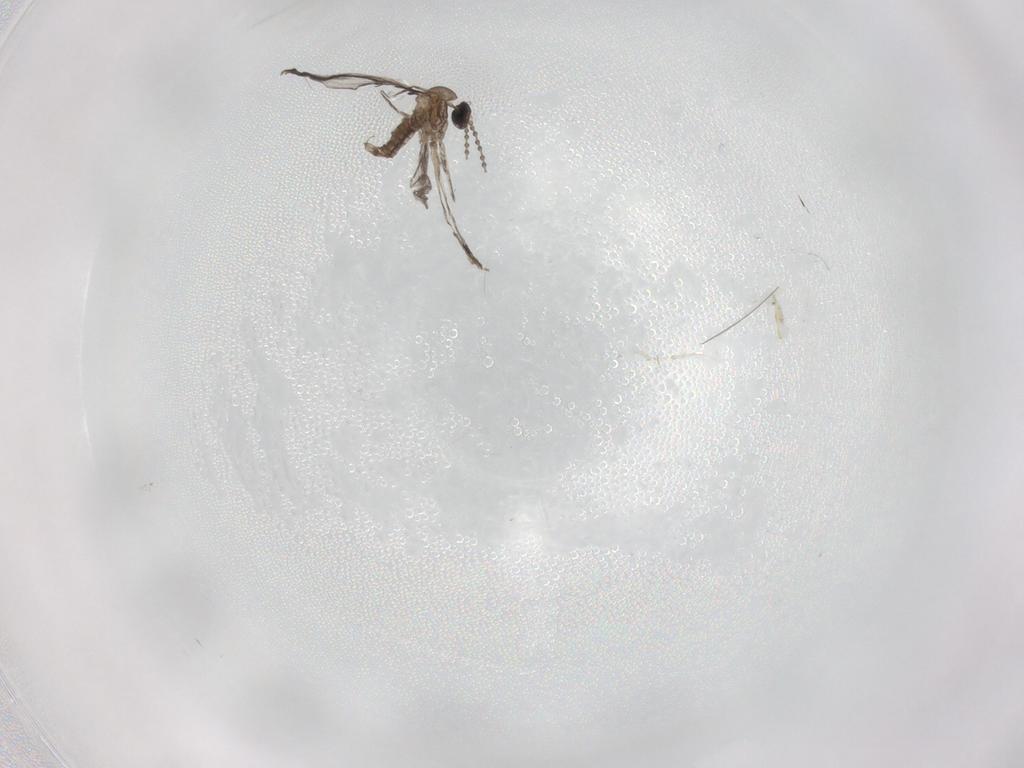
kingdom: Animalia
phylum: Arthropoda
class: Insecta
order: Diptera
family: Cecidomyiidae
